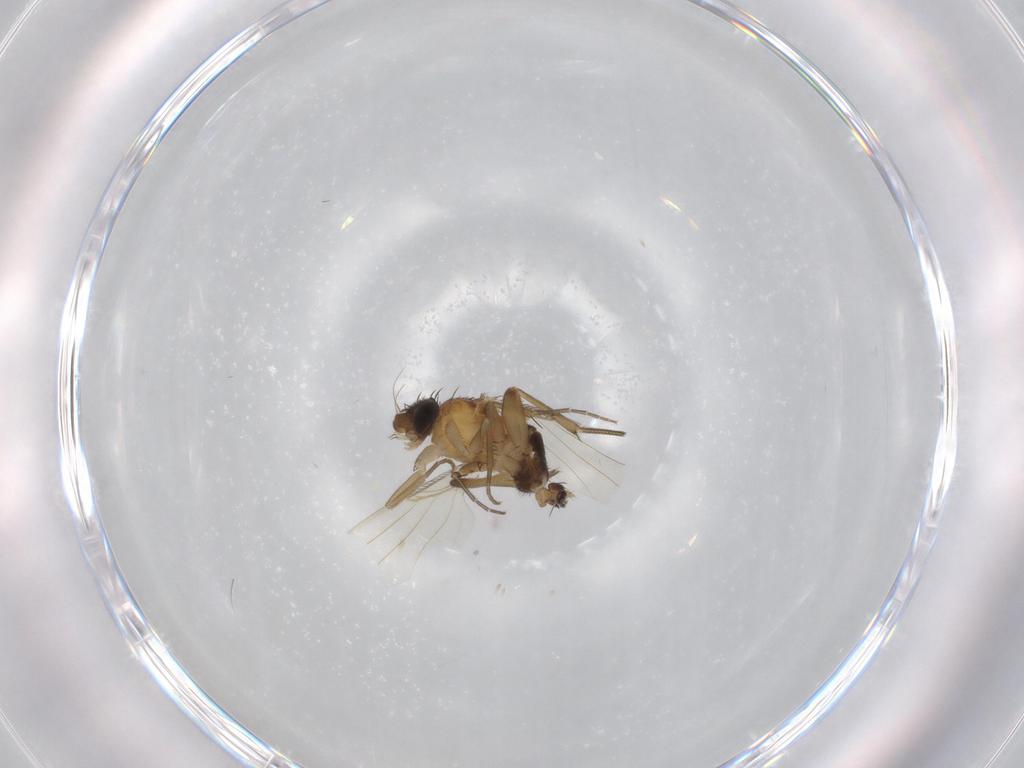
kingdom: Animalia
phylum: Arthropoda
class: Insecta
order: Diptera
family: Phoridae
